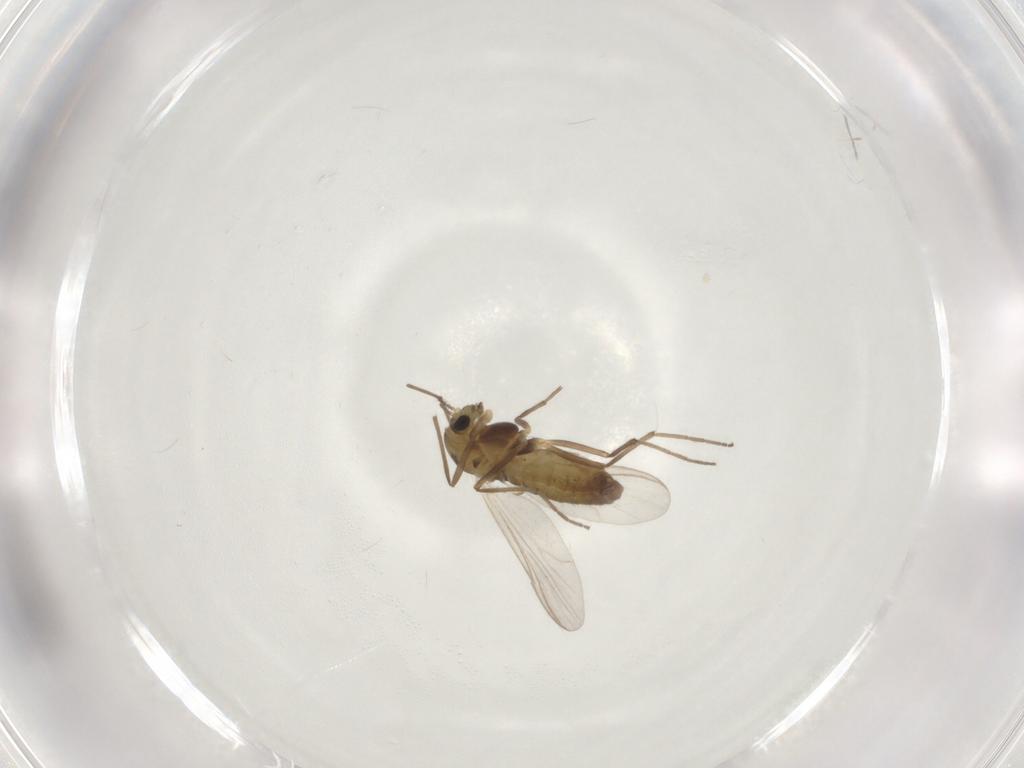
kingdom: Animalia
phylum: Arthropoda
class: Insecta
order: Diptera
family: Chironomidae
